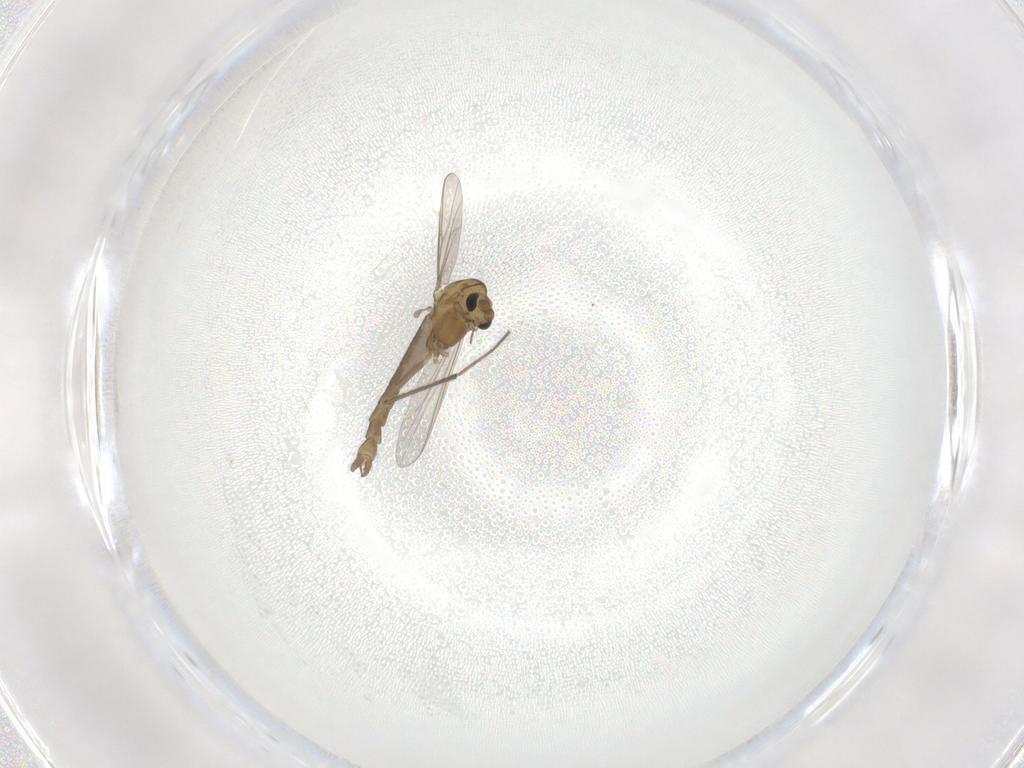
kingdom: Animalia
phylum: Arthropoda
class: Insecta
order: Diptera
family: Chironomidae
